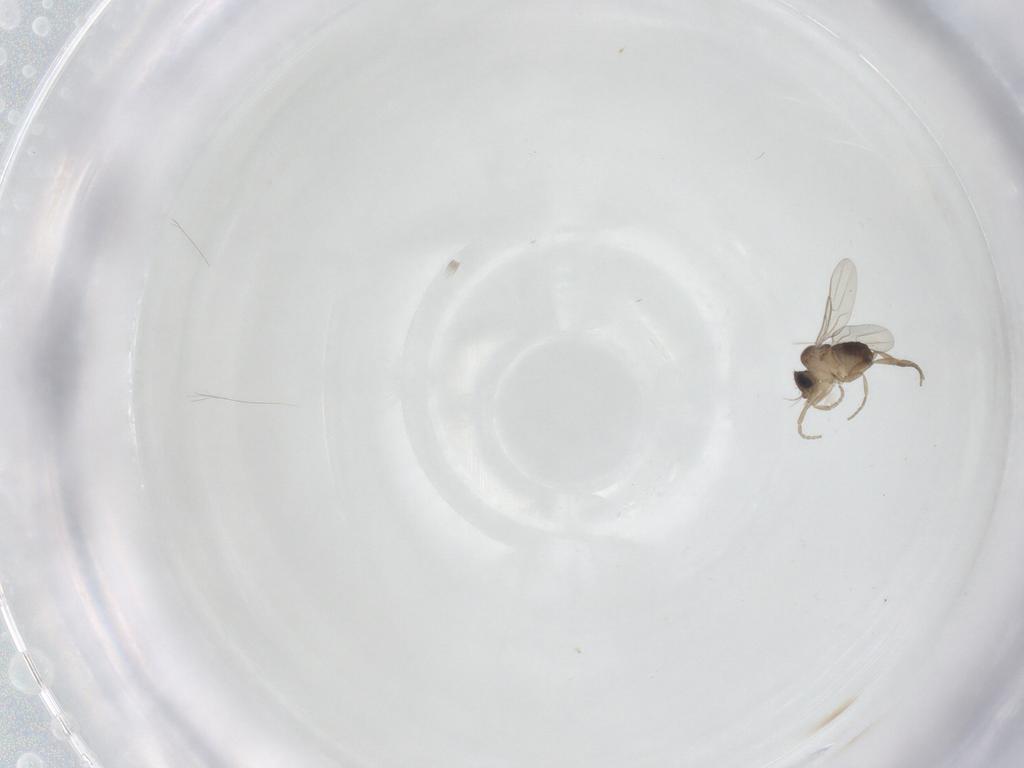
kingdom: Animalia
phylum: Arthropoda
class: Insecta
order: Diptera
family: Phoridae
